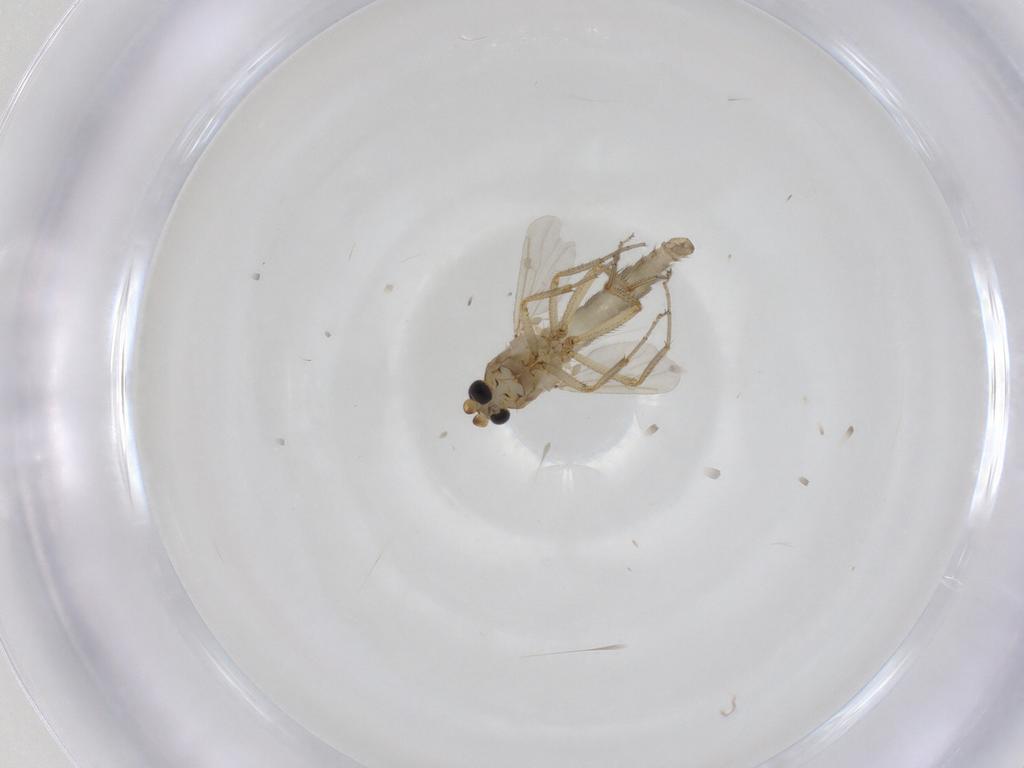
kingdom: Animalia
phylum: Arthropoda
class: Insecta
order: Diptera
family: Ceratopogonidae
